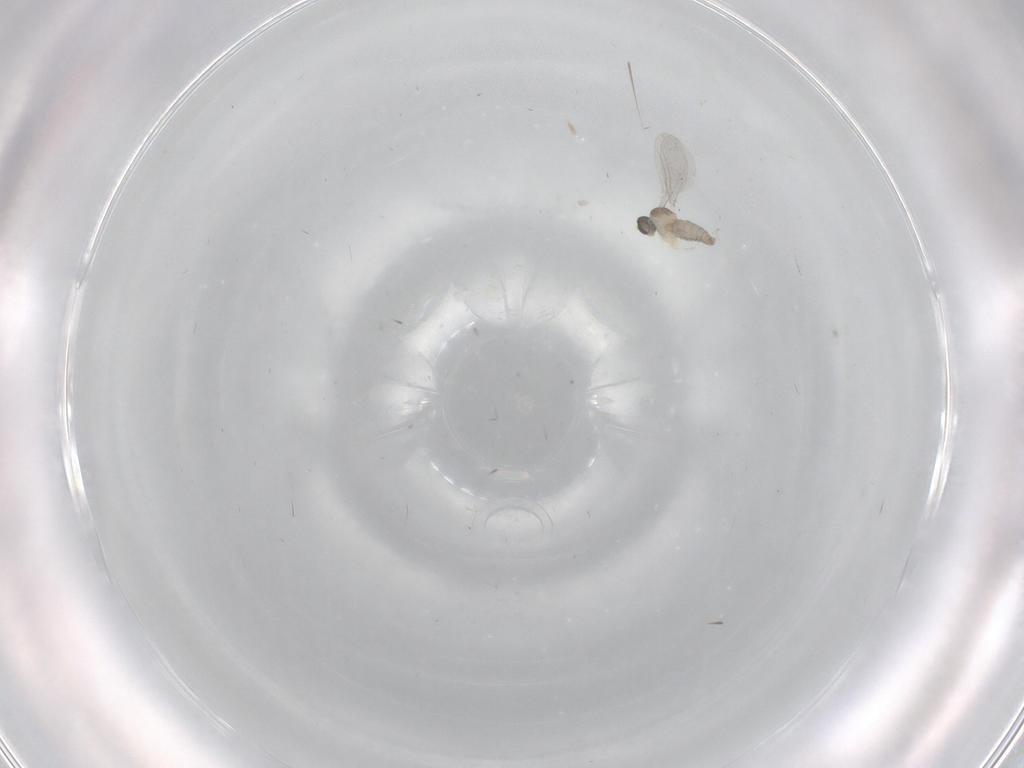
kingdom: Animalia
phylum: Arthropoda
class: Insecta
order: Diptera
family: Cecidomyiidae
